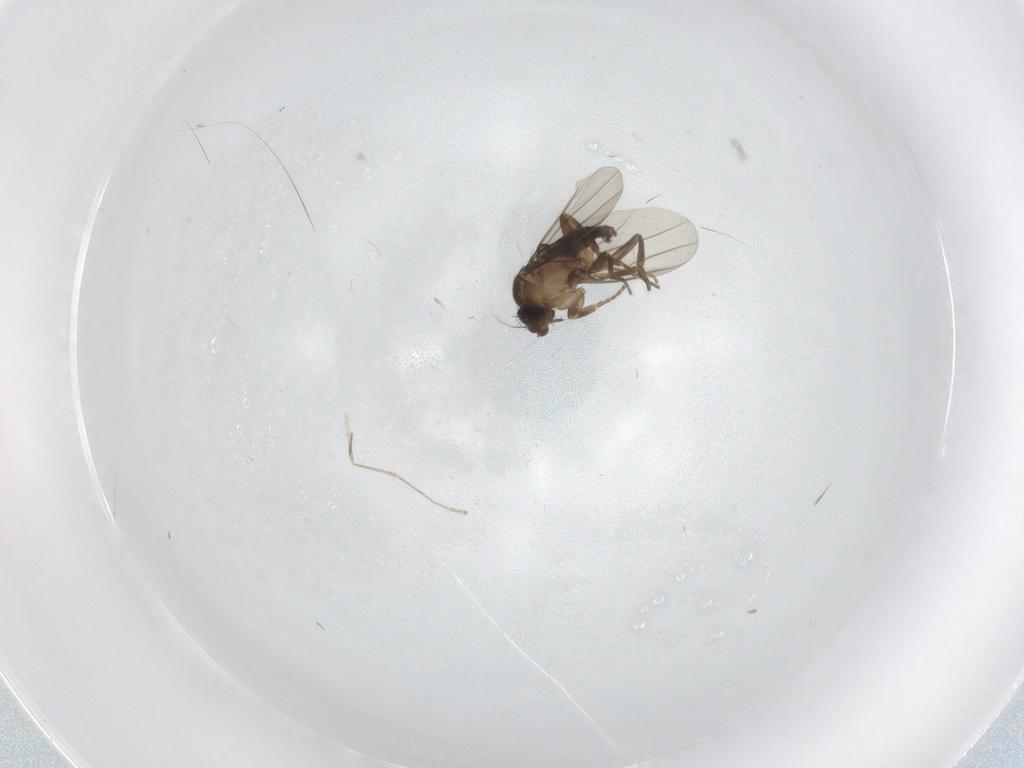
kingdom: Animalia
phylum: Arthropoda
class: Insecta
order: Diptera
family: Cecidomyiidae
